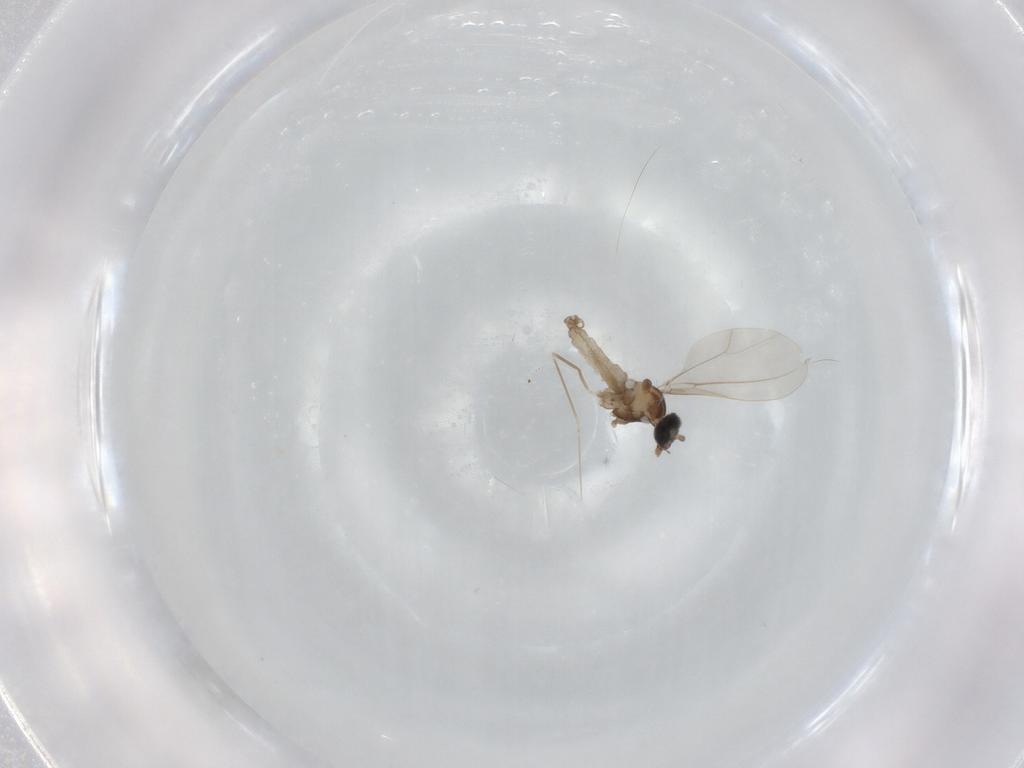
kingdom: Animalia
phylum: Arthropoda
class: Insecta
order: Diptera
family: Cecidomyiidae
